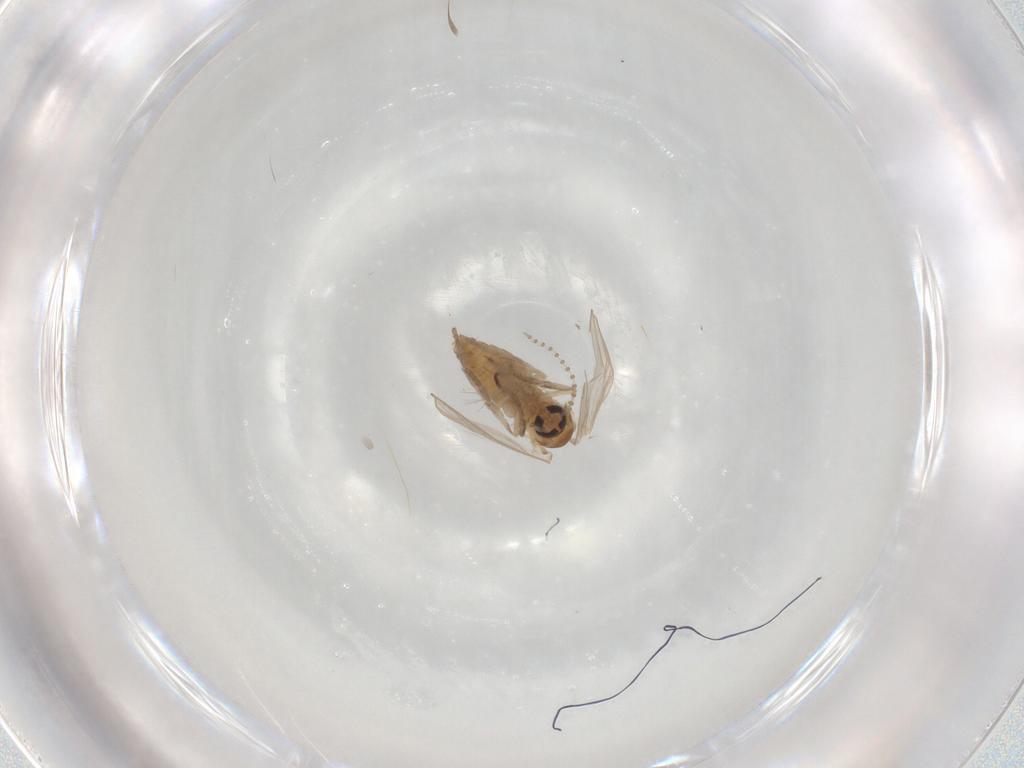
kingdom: Animalia
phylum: Arthropoda
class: Insecta
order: Diptera
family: Psychodidae
